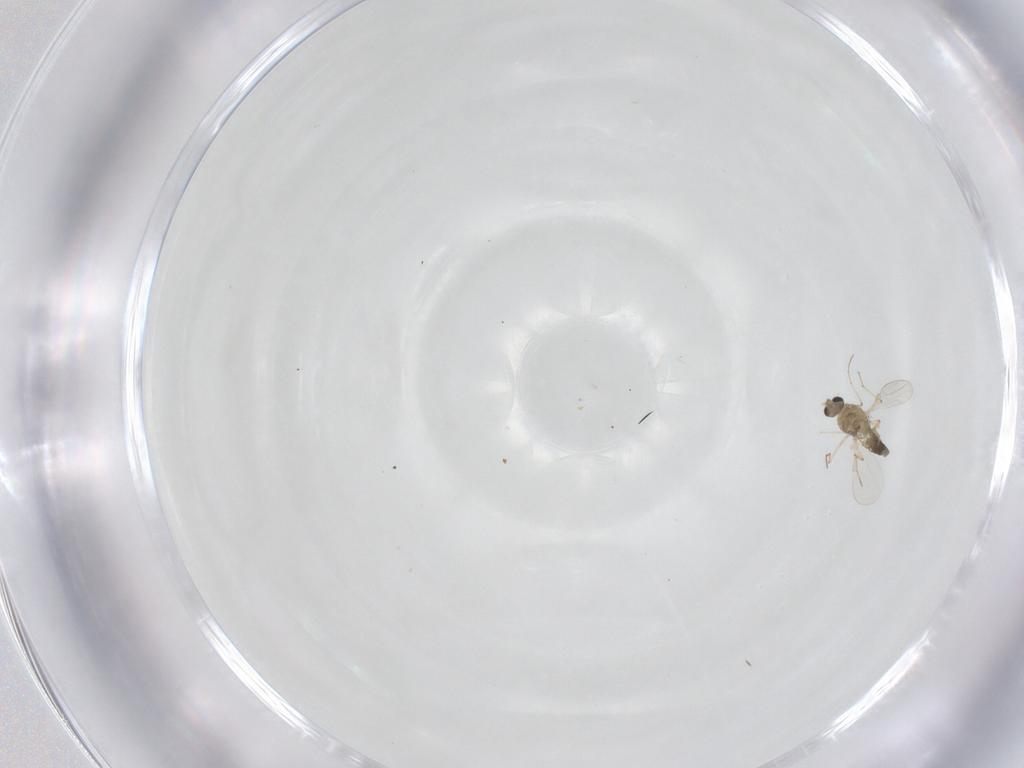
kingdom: Animalia
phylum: Arthropoda
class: Insecta
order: Diptera
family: Chironomidae
